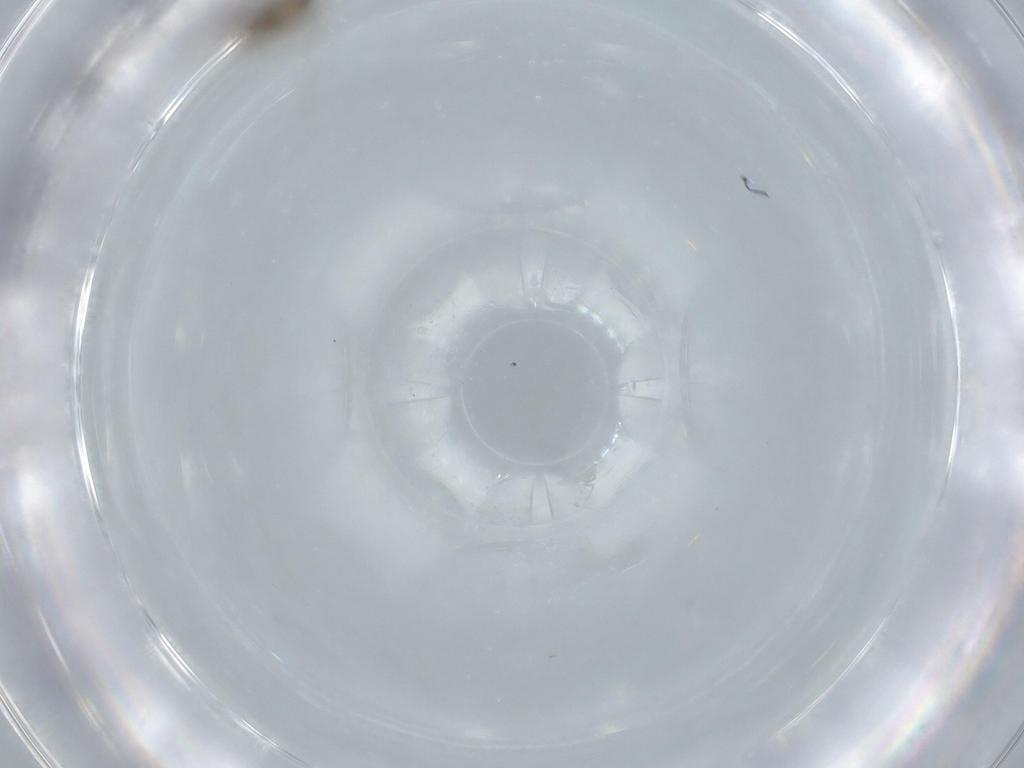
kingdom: Animalia
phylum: Arthropoda
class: Insecta
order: Diptera
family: Cecidomyiidae
